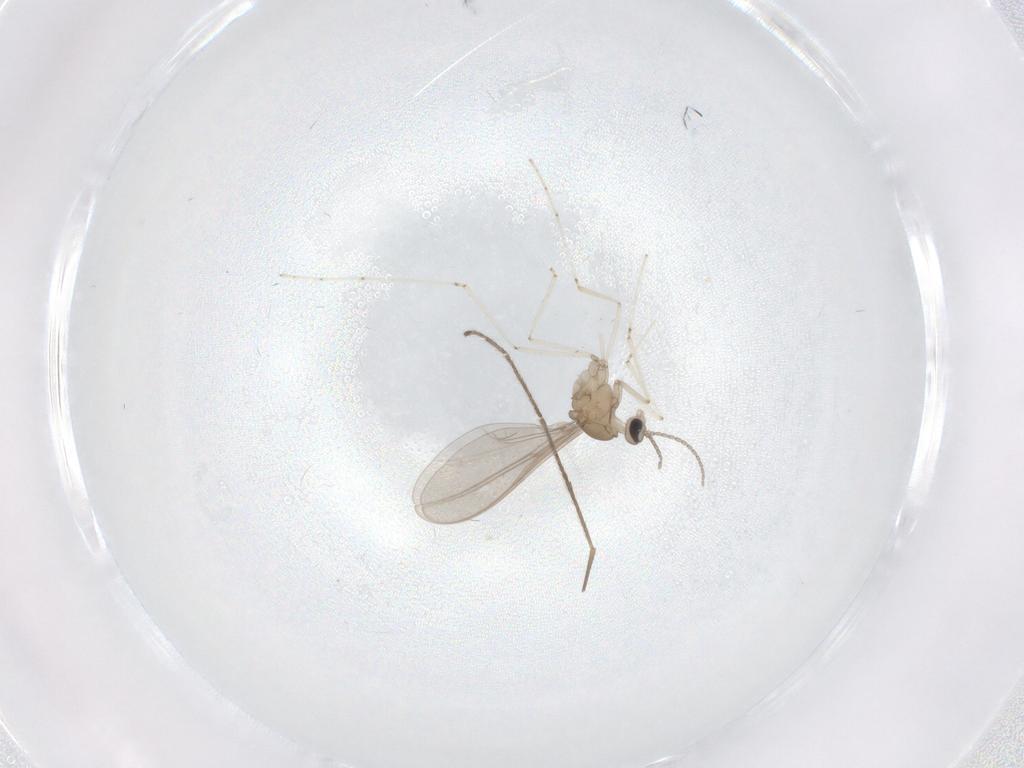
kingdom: Animalia
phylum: Arthropoda
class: Insecta
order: Diptera
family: Cecidomyiidae
